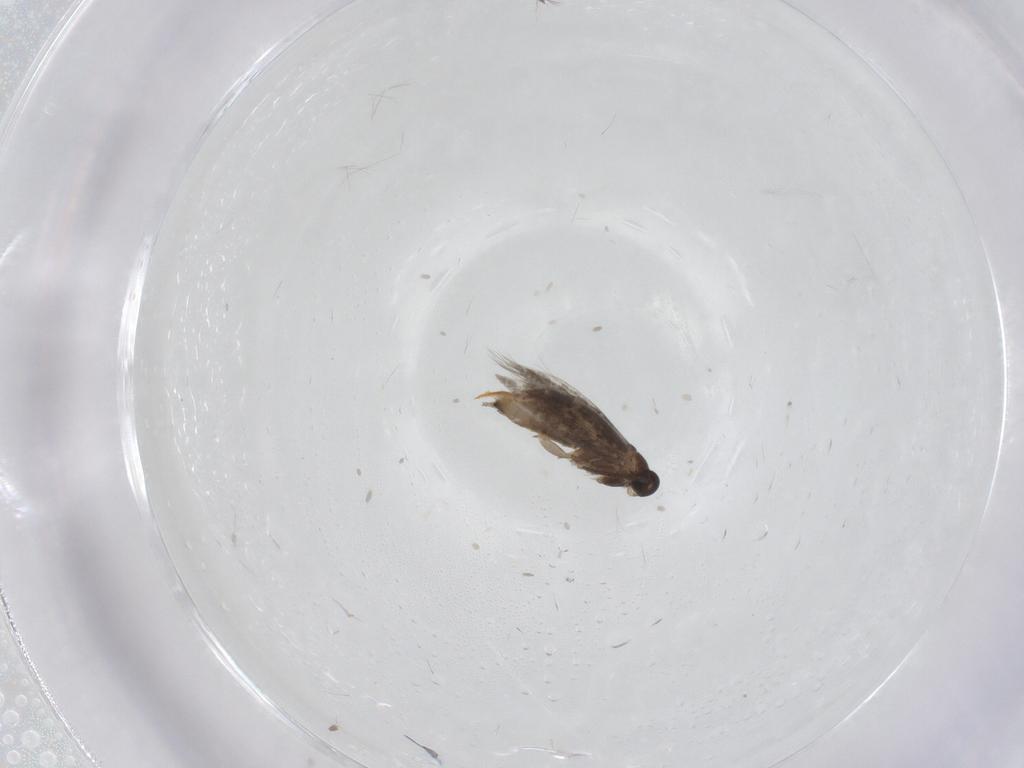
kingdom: Animalia
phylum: Arthropoda
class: Insecta
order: Lepidoptera
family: Heliozelidae
